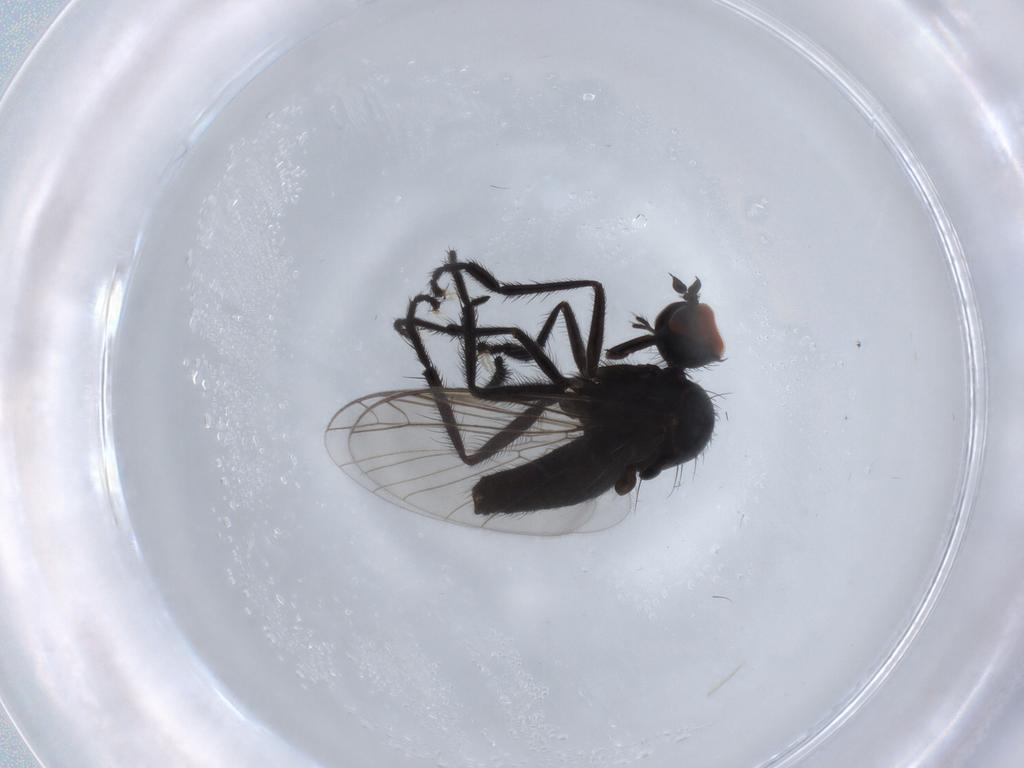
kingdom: Animalia
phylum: Arthropoda
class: Insecta
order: Diptera
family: Empididae
